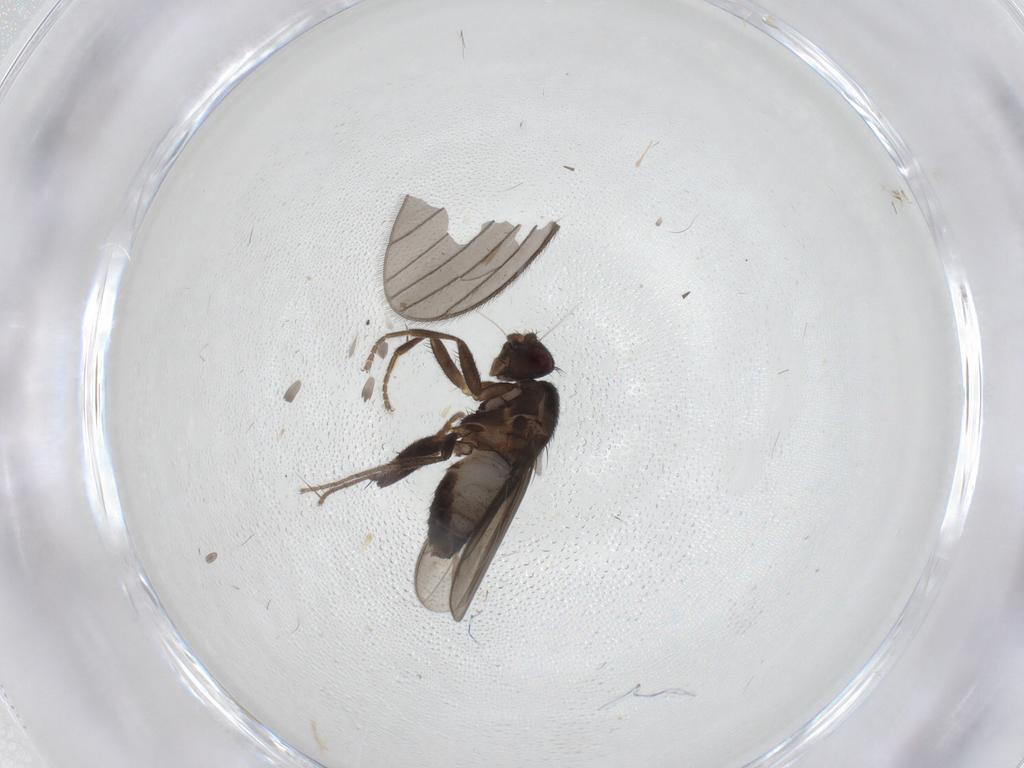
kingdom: Animalia
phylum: Arthropoda
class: Insecta
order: Diptera
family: Sphaeroceridae
